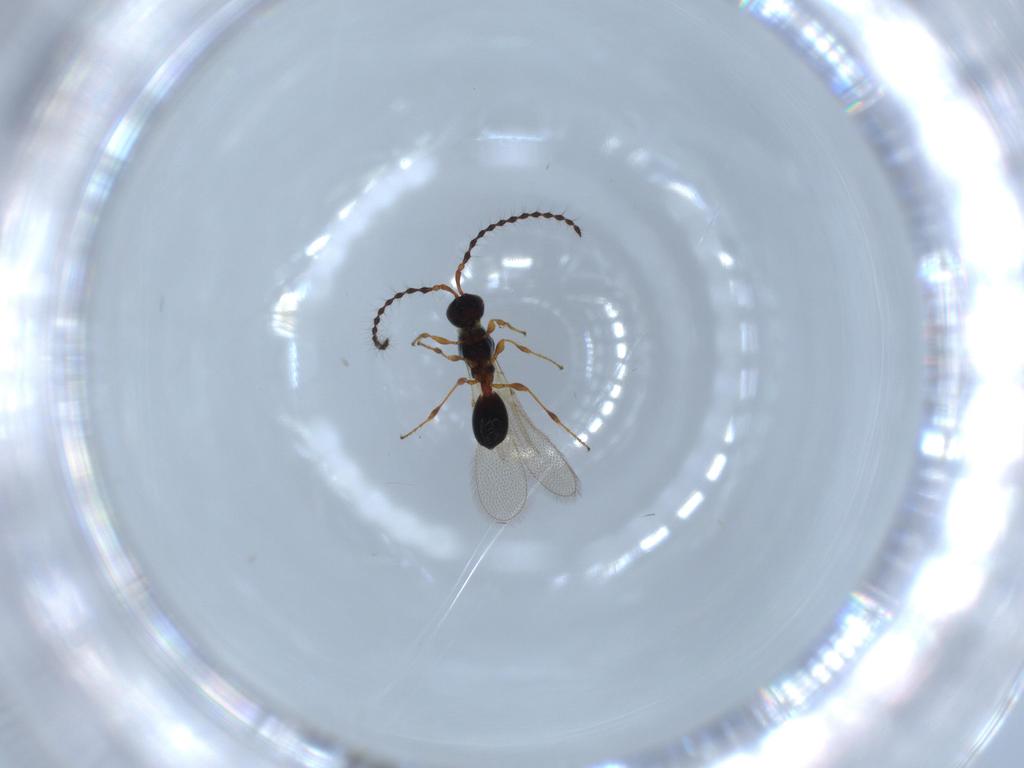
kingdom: Animalia
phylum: Arthropoda
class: Insecta
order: Hymenoptera
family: Diapriidae
